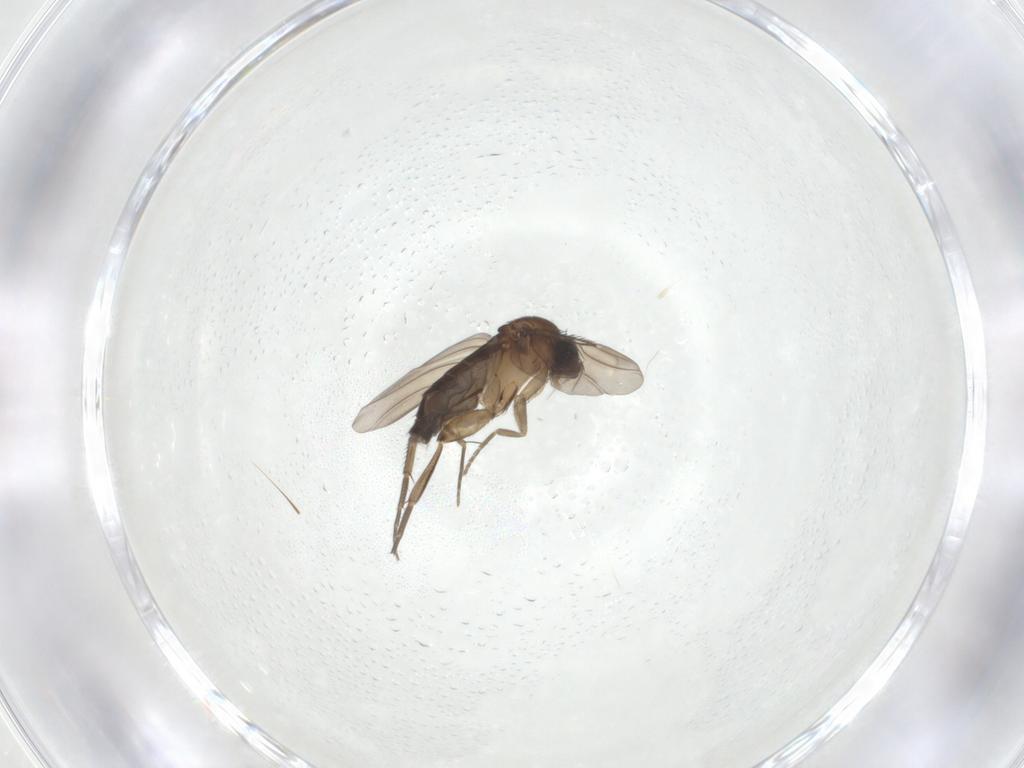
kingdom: Animalia
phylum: Arthropoda
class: Insecta
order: Diptera
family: Phoridae
